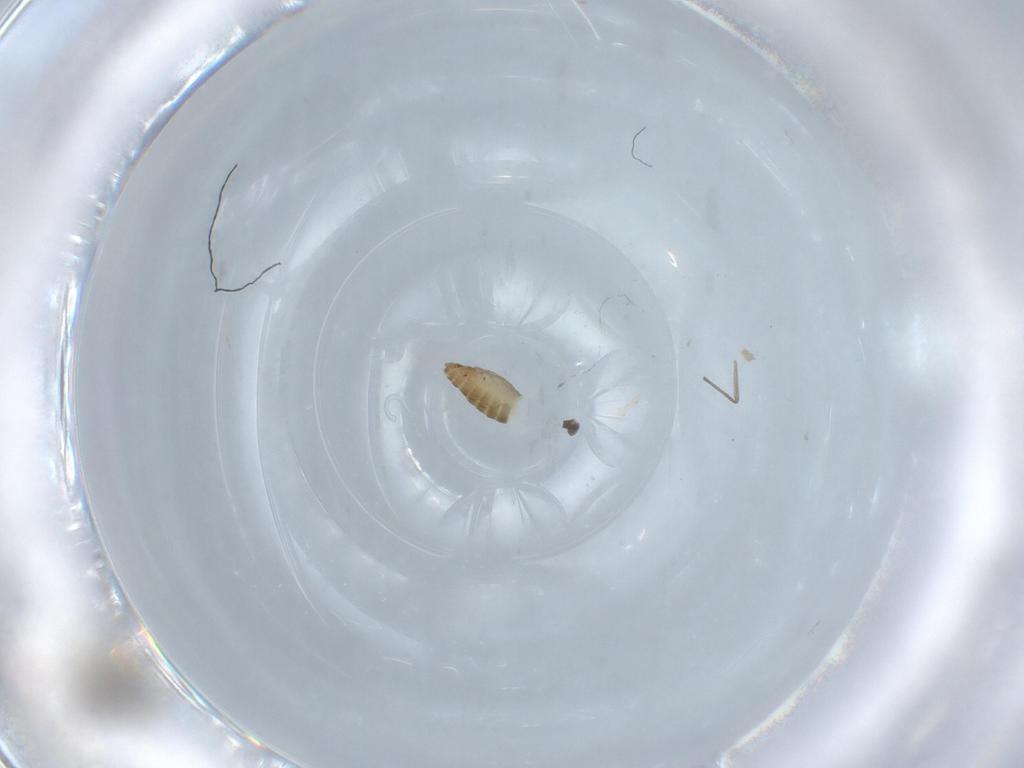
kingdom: Animalia
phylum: Arthropoda
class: Insecta
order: Diptera
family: Chironomidae
